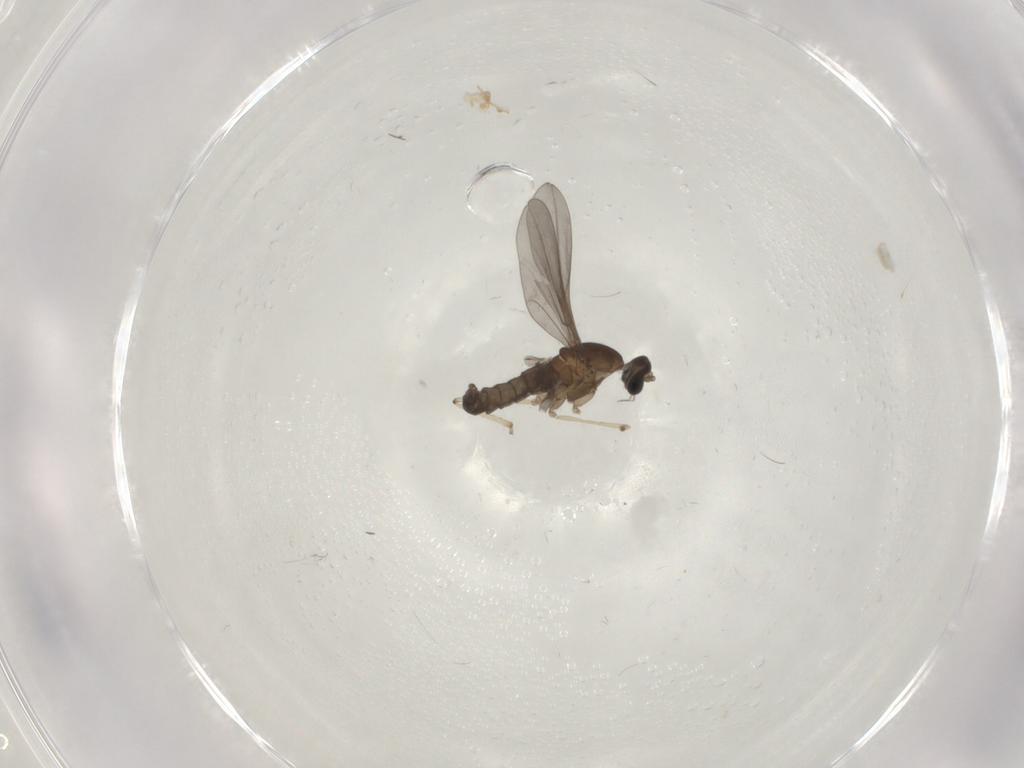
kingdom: Animalia
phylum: Arthropoda
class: Insecta
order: Diptera
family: Cecidomyiidae
